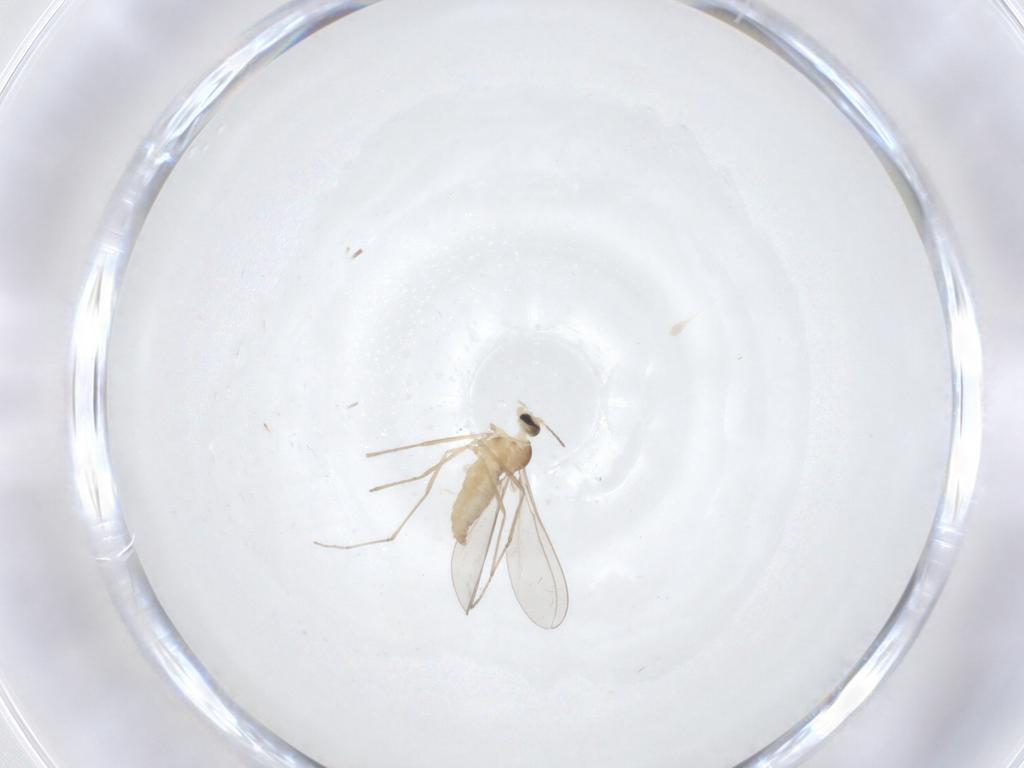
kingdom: Animalia
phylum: Arthropoda
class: Insecta
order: Diptera
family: Cecidomyiidae
